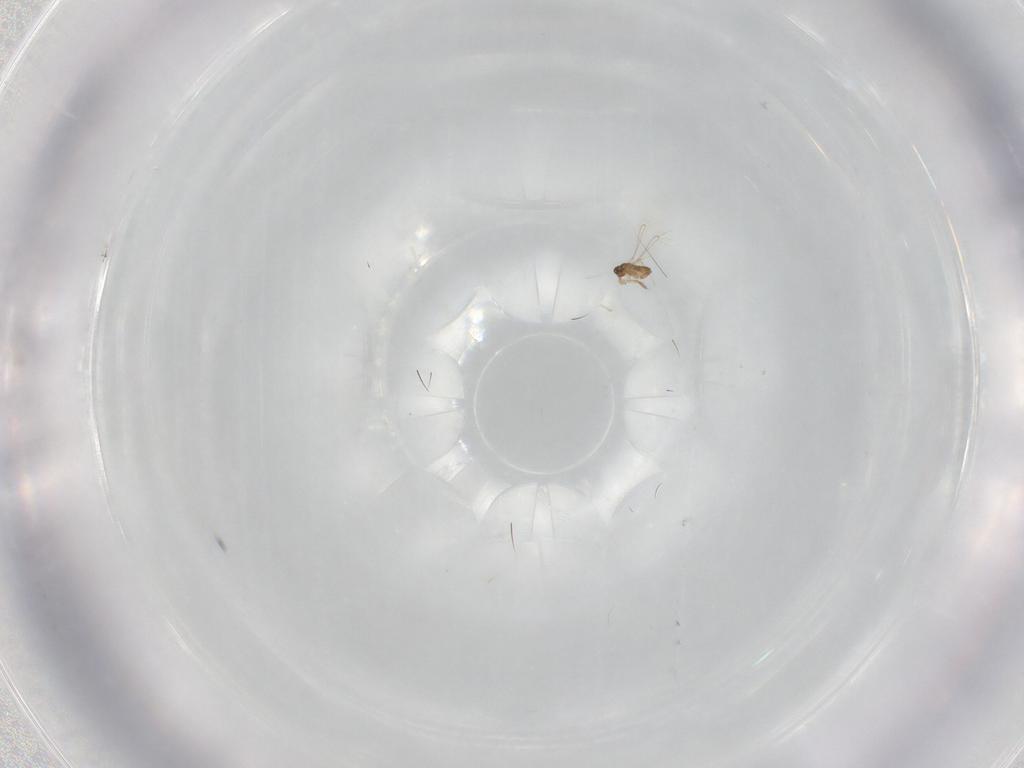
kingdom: Animalia
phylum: Arthropoda
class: Insecta
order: Hymenoptera
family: Mymaridae
